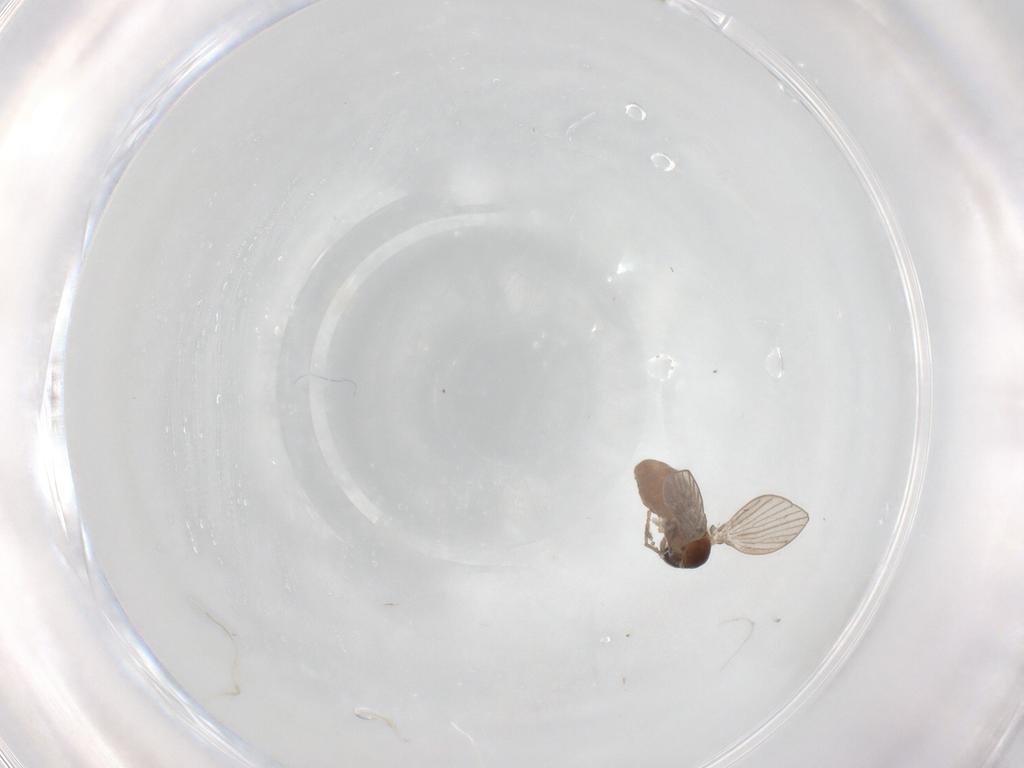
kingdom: Animalia
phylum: Arthropoda
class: Insecta
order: Diptera
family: Psychodidae
